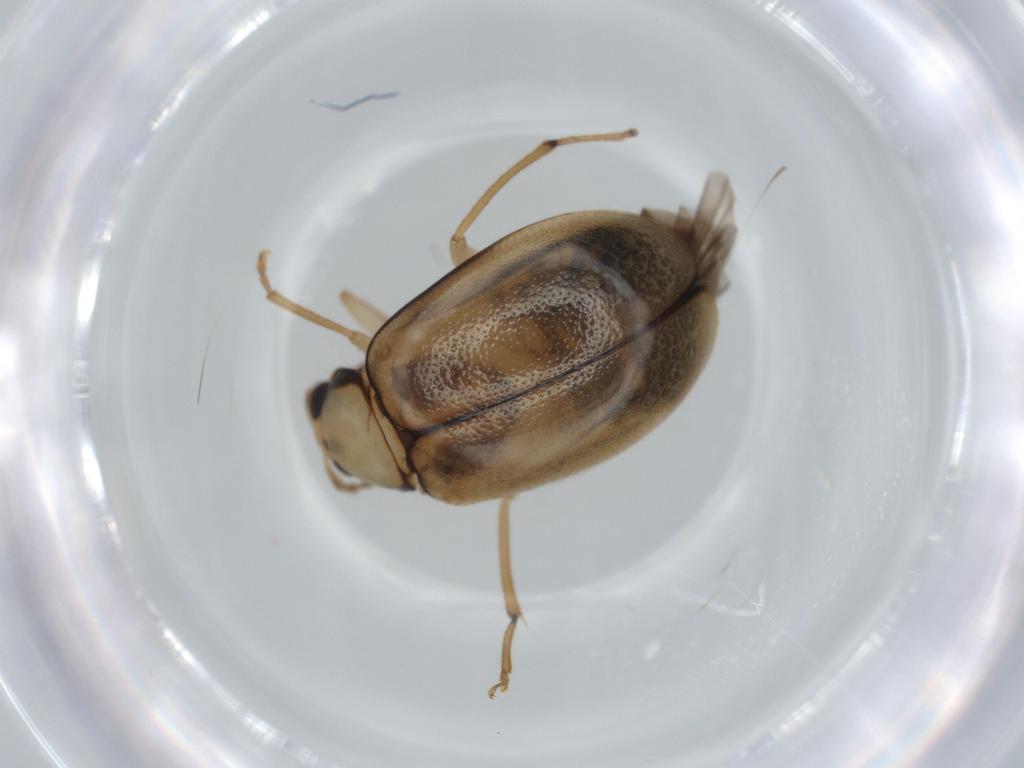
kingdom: Animalia
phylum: Arthropoda
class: Insecta
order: Coleoptera
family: Chrysomelidae
